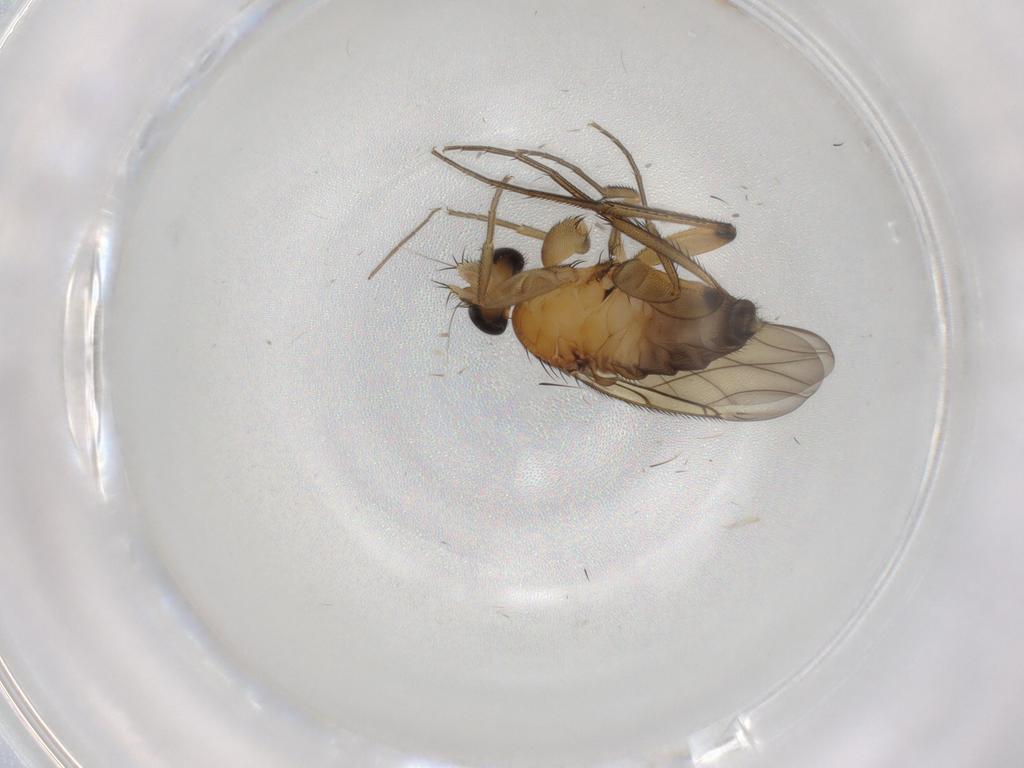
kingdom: Animalia
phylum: Arthropoda
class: Insecta
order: Diptera
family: Phoridae
